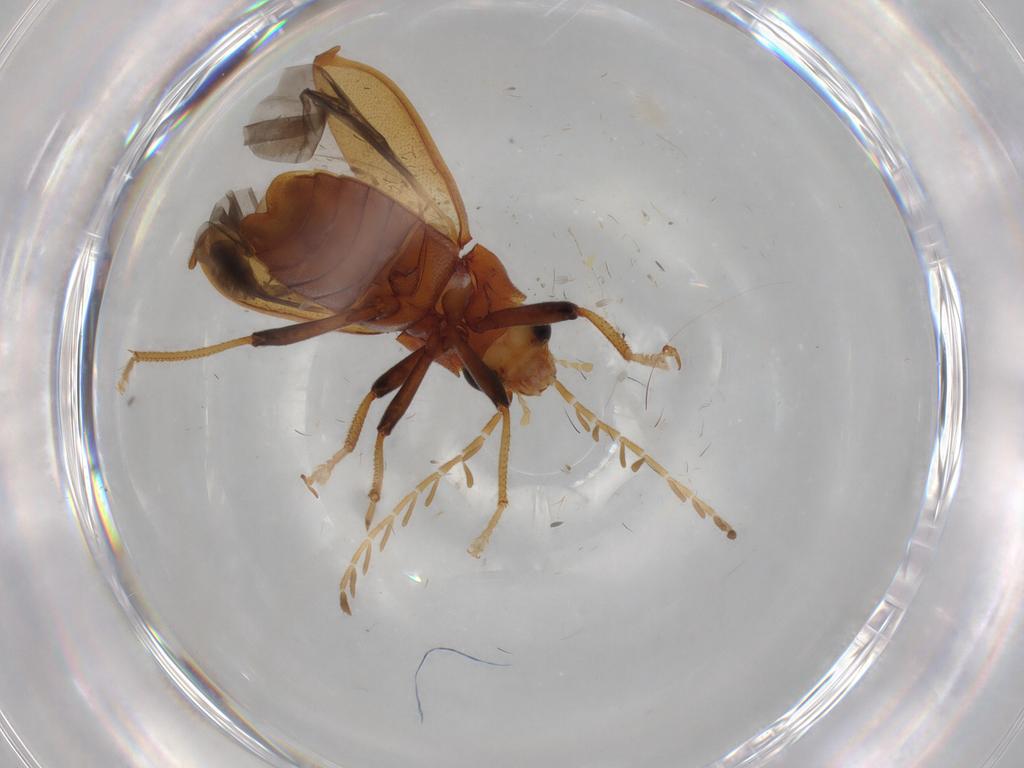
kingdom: Animalia
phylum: Arthropoda
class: Insecta
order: Coleoptera
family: Ptilodactylidae
